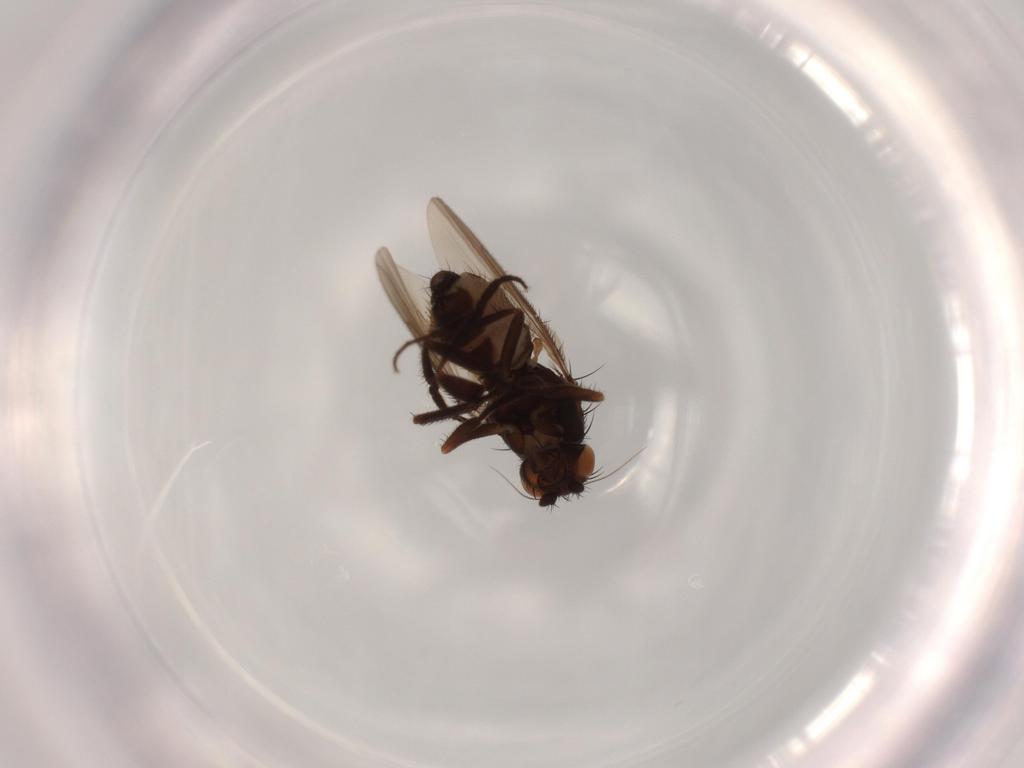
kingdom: Animalia
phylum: Arthropoda
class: Insecta
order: Diptera
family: Sphaeroceridae
